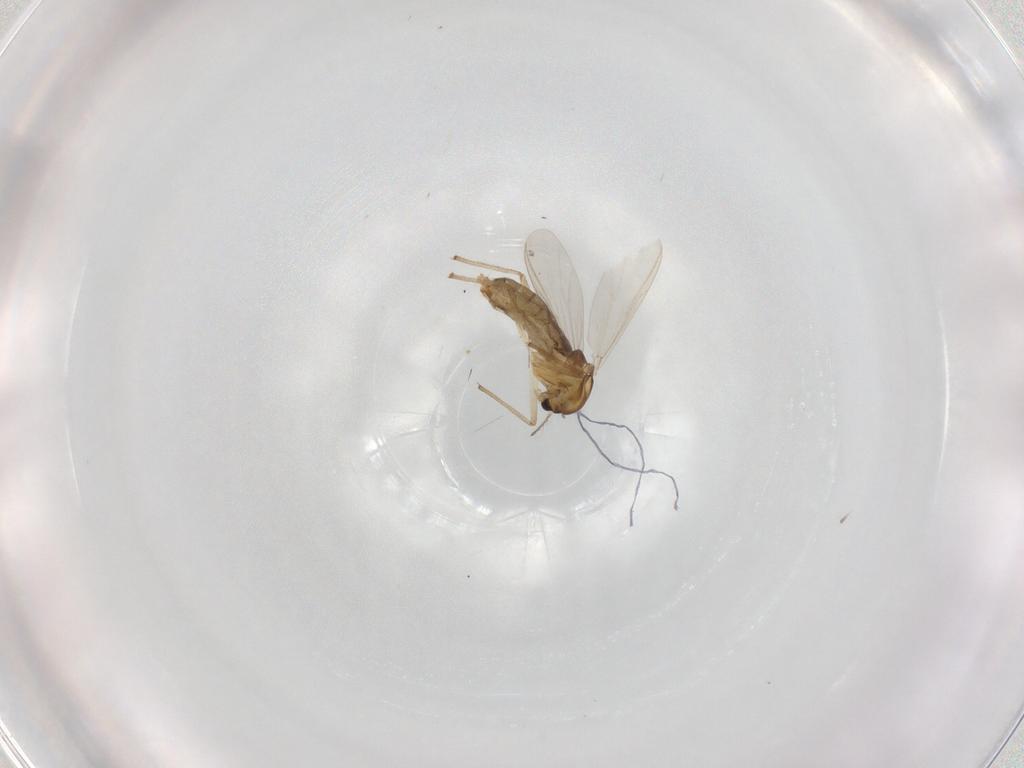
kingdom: Animalia
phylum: Arthropoda
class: Insecta
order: Diptera
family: Chironomidae
